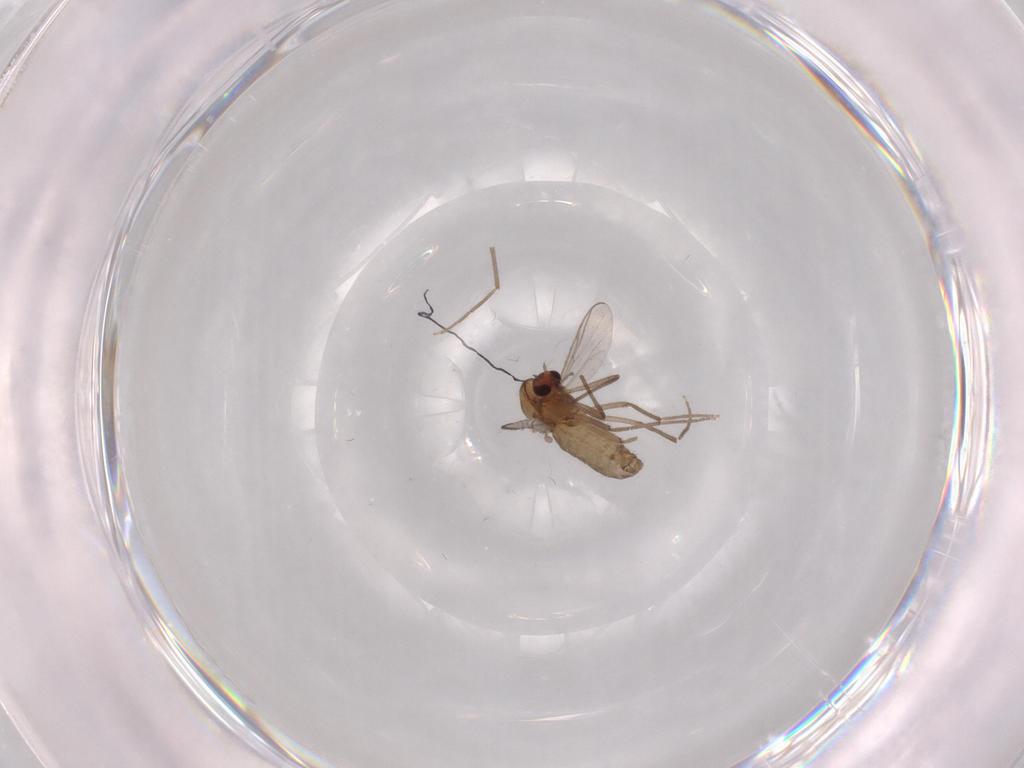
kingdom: Animalia
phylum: Arthropoda
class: Insecta
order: Diptera
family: Chironomidae
